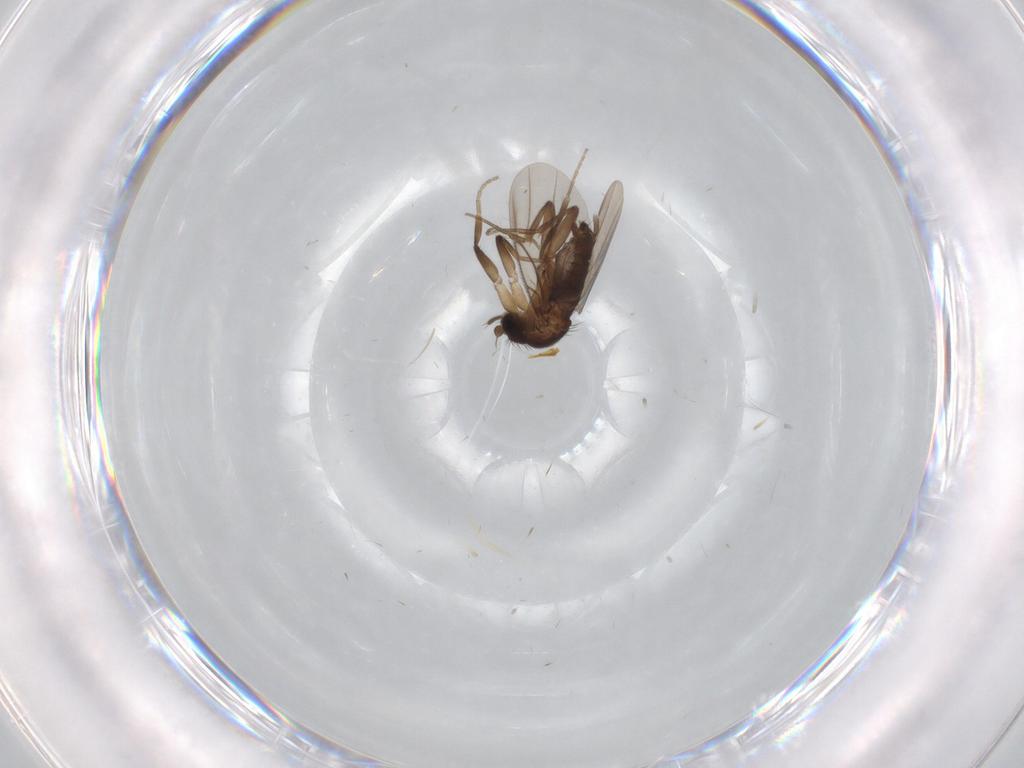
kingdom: Animalia
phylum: Arthropoda
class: Insecta
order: Diptera
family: Phoridae
